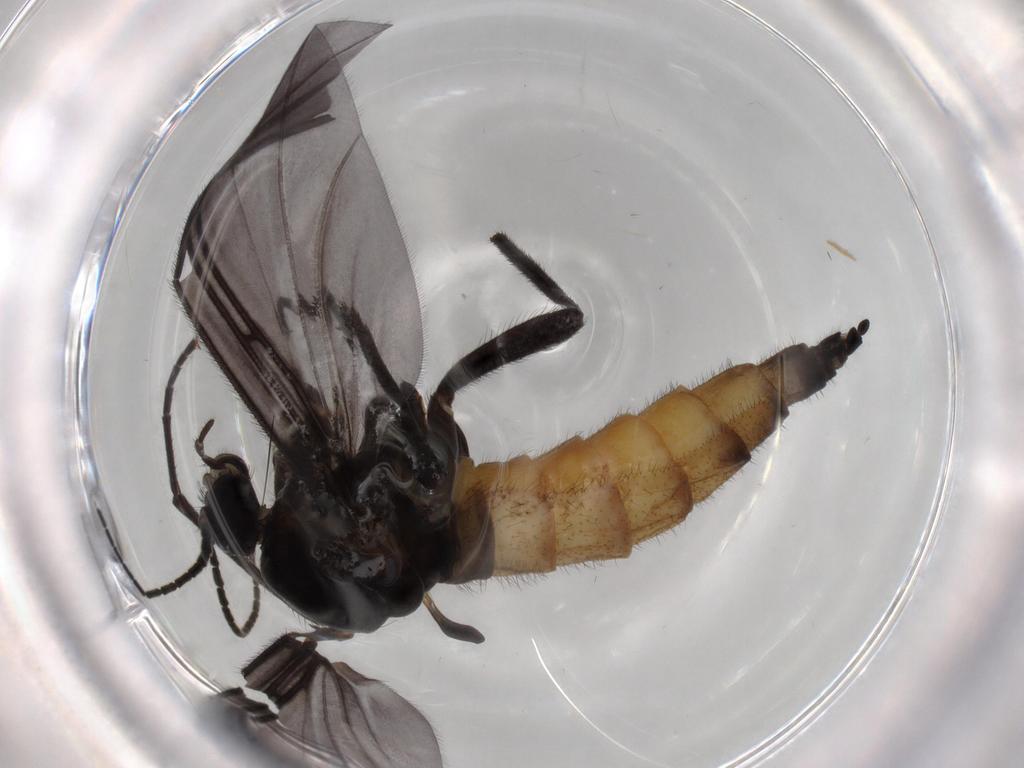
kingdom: Animalia
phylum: Arthropoda
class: Insecta
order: Diptera
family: Sciaridae
